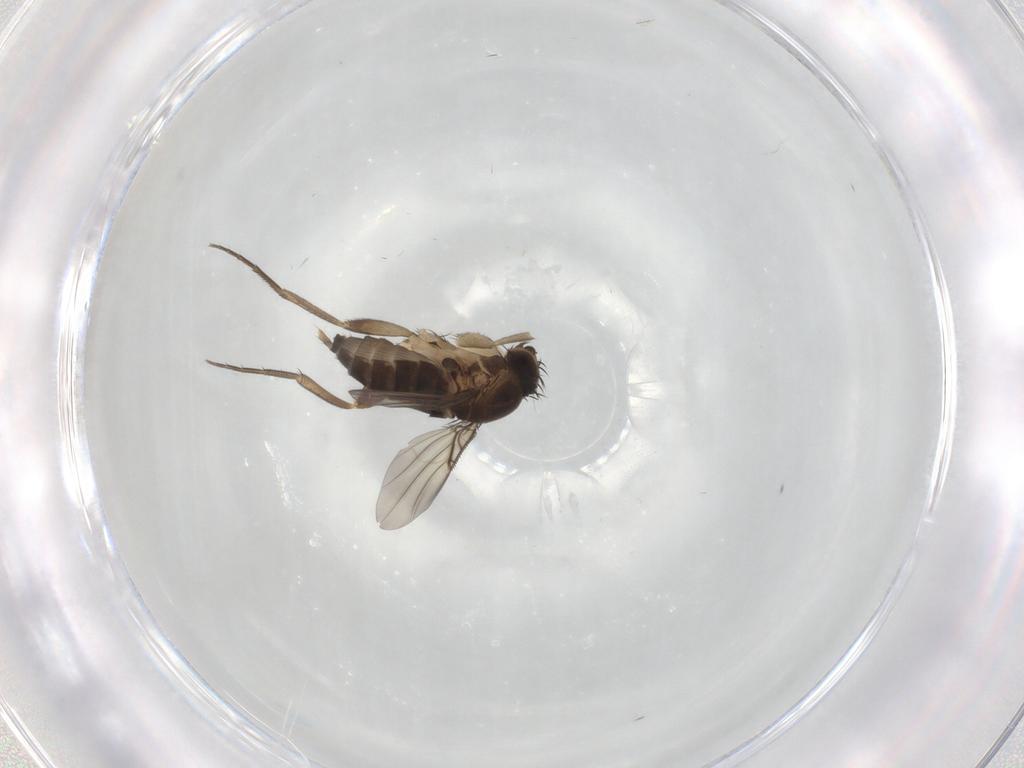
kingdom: Animalia
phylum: Arthropoda
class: Insecta
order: Diptera
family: Phoridae
